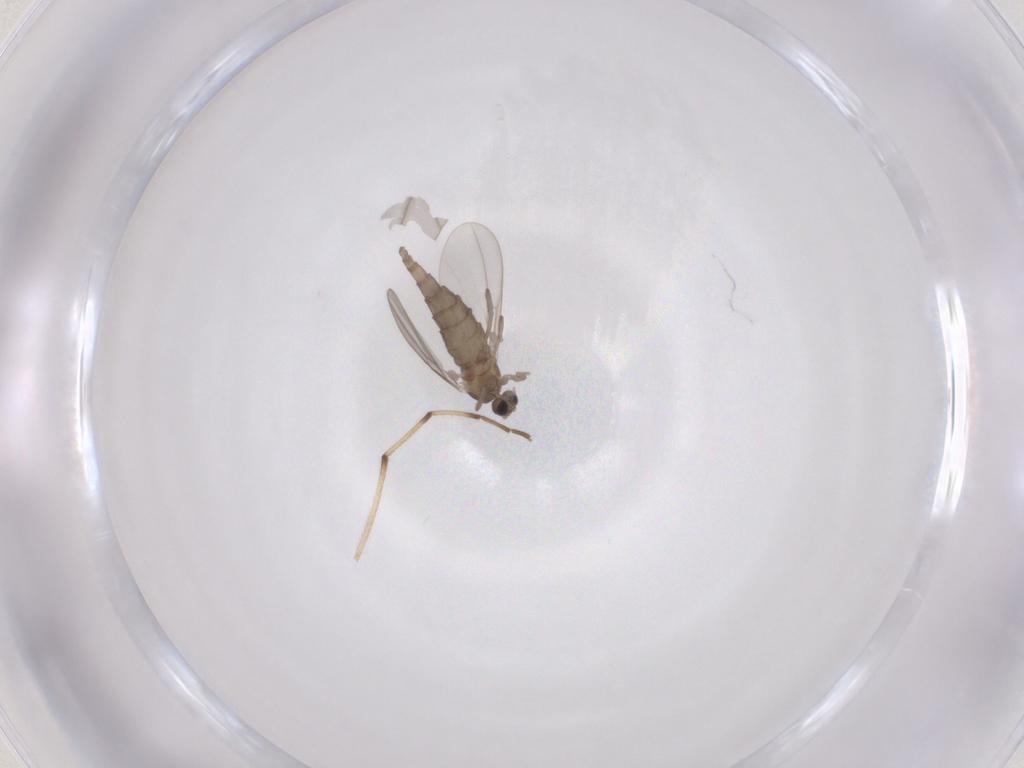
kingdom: Animalia
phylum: Arthropoda
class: Insecta
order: Diptera
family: Cecidomyiidae
